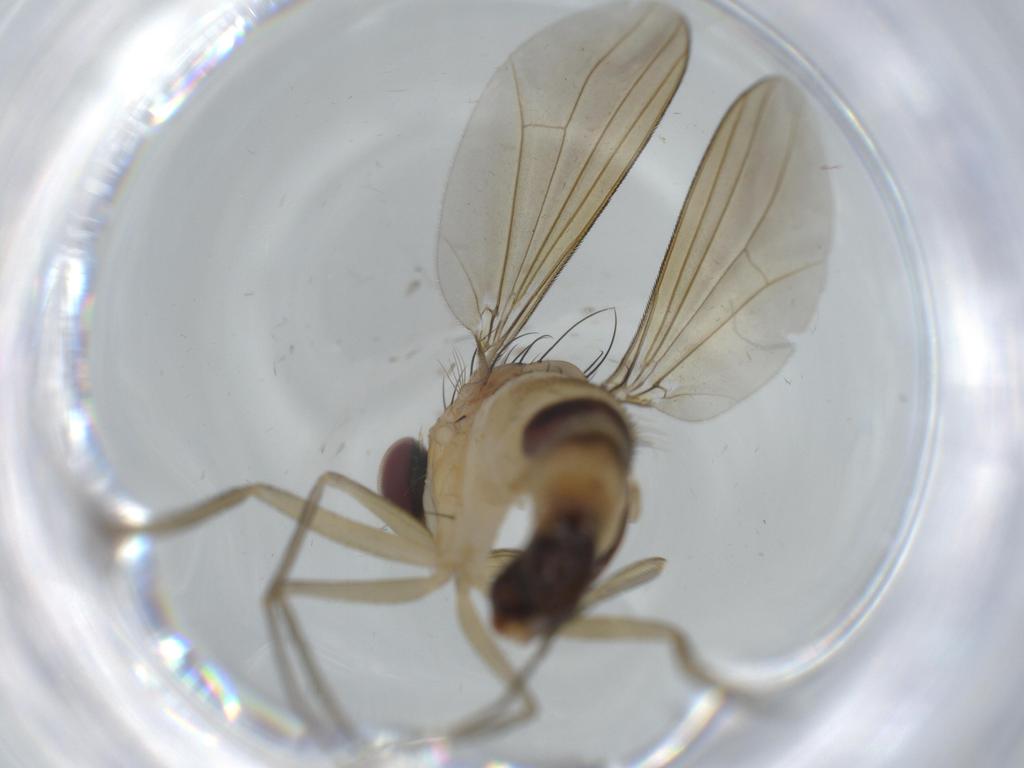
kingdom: Animalia
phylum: Arthropoda
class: Insecta
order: Diptera
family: Dolichopodidae
